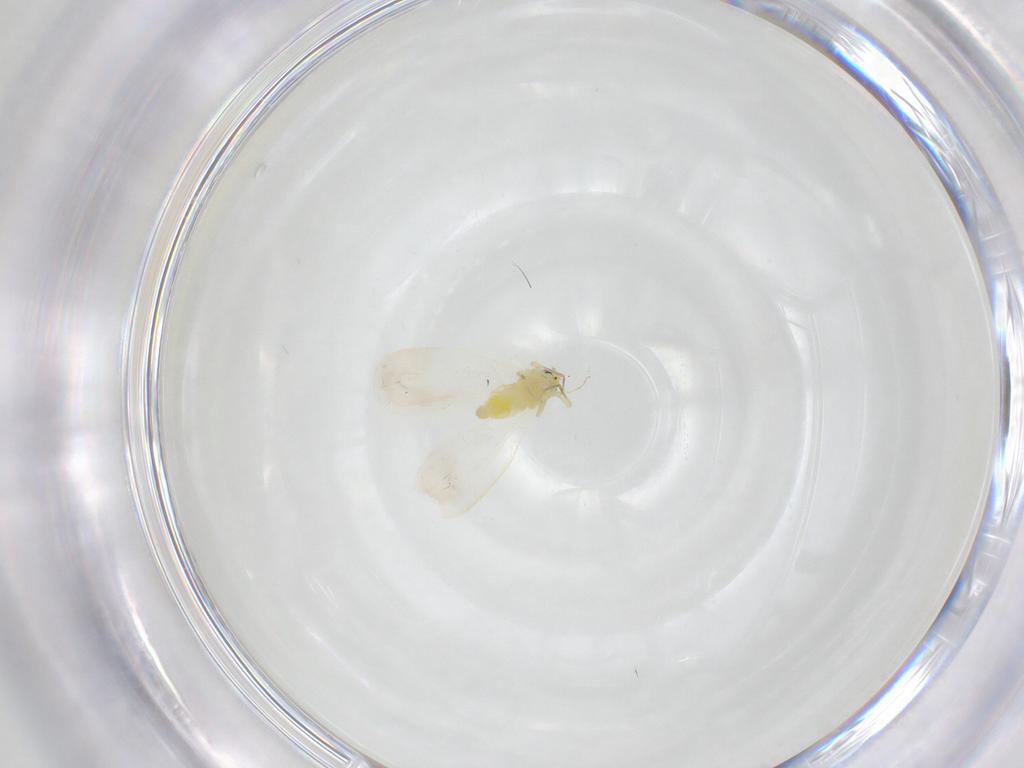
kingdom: Animalia
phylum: Arthropoda
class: Insecta
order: Hemiptera
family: Aleyrodidae
